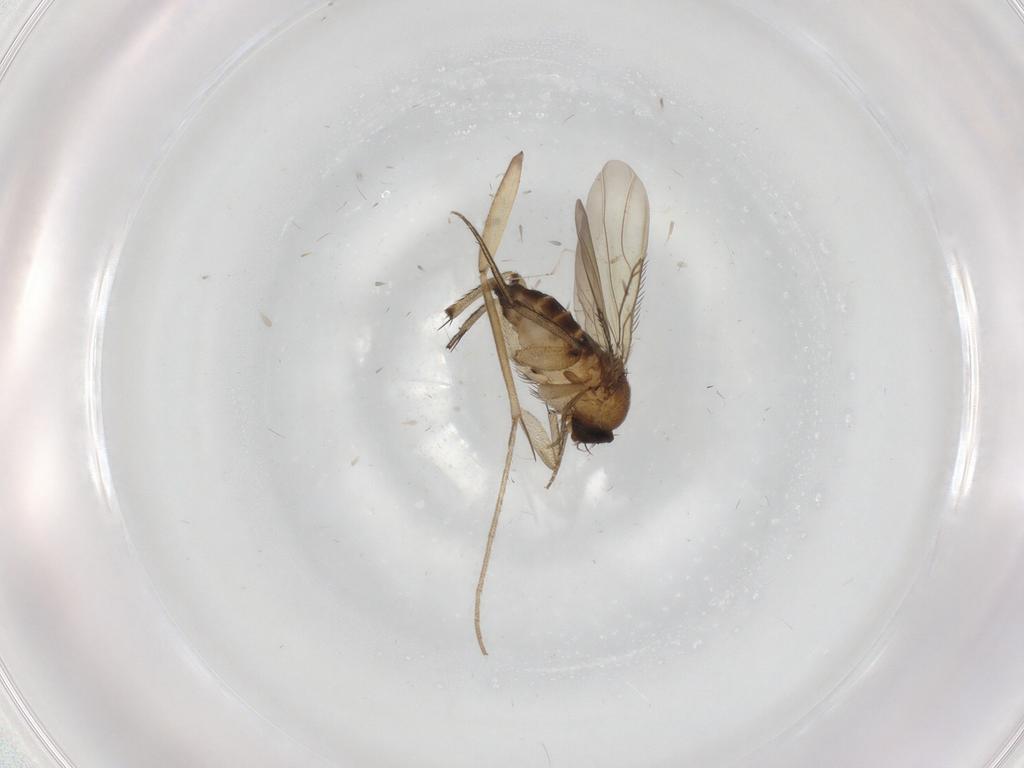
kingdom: Animalia
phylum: Arthropoda
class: Insecta
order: Diptera
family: Phoridae
